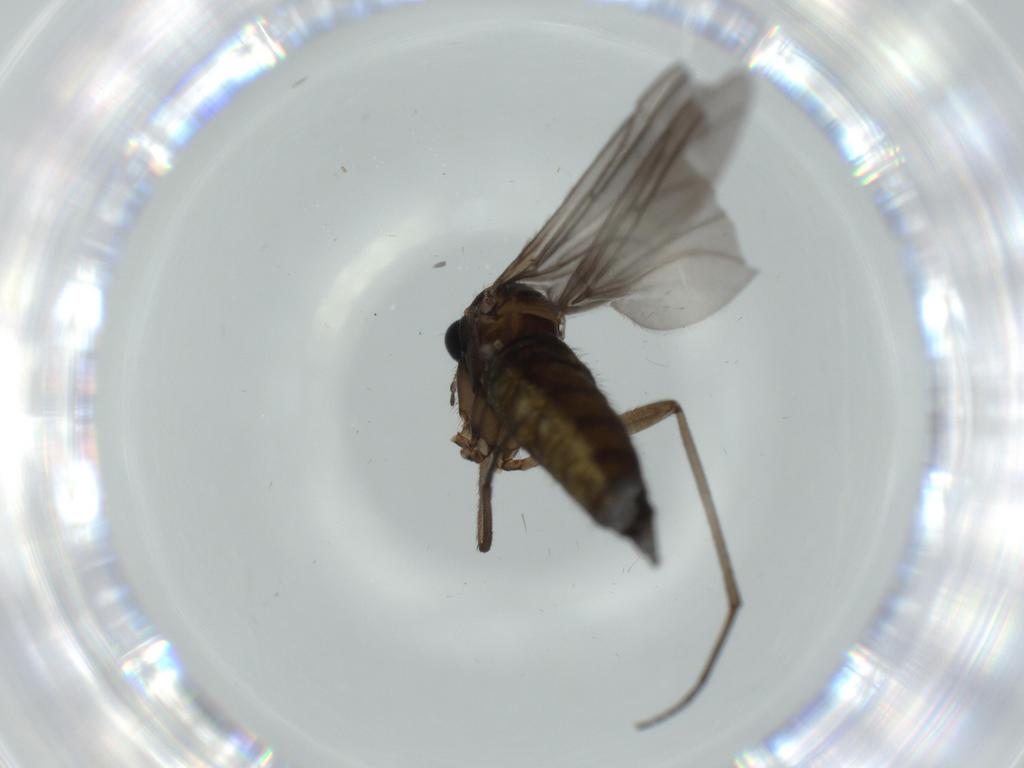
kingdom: Animalia
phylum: Arthropoda
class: Insecta
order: Diptera
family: Sciaridae
